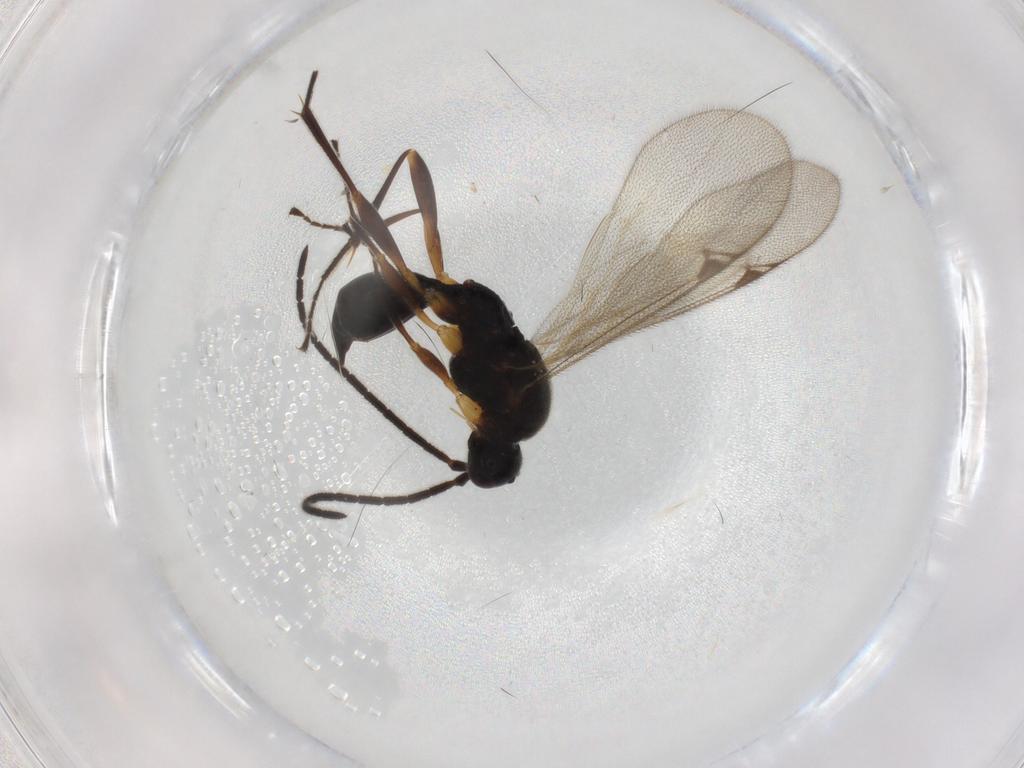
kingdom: Animalia
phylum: Arthropoda
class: Insecta
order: Hymenoptera
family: Proctotrupidae
